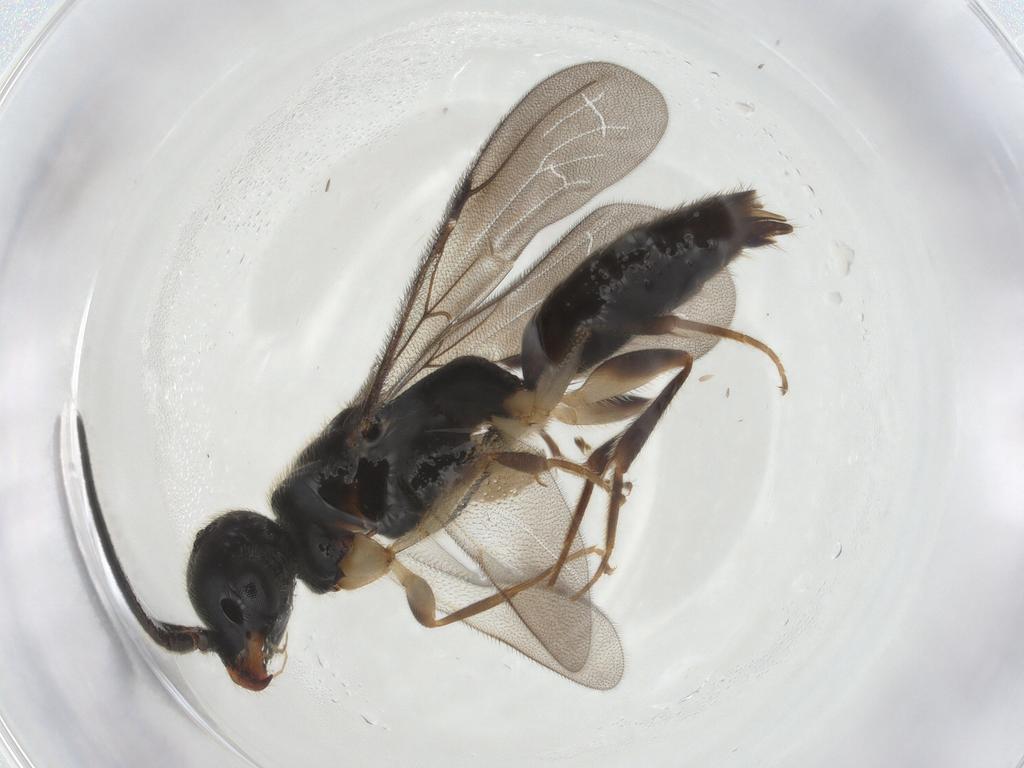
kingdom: Animalia
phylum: Arthropoda
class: Insecta
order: Hymenoptera
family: Bethylidae
